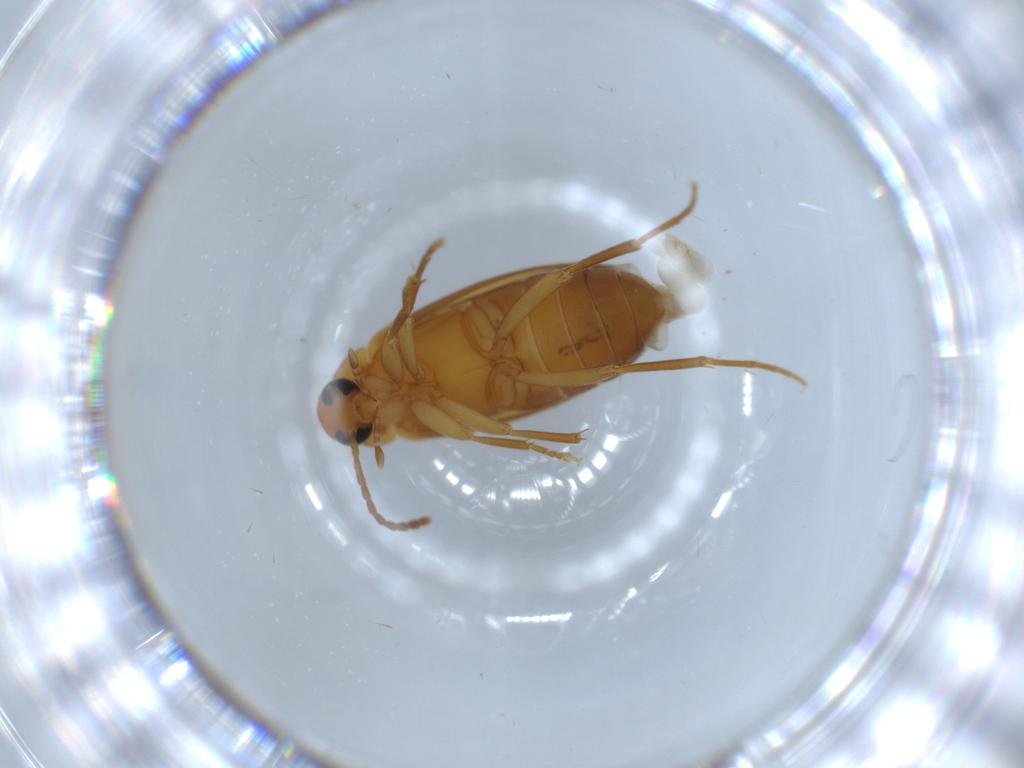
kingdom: Animalia
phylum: Arthropoda
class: Insecta
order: Coleoptera
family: Scraptiidae
